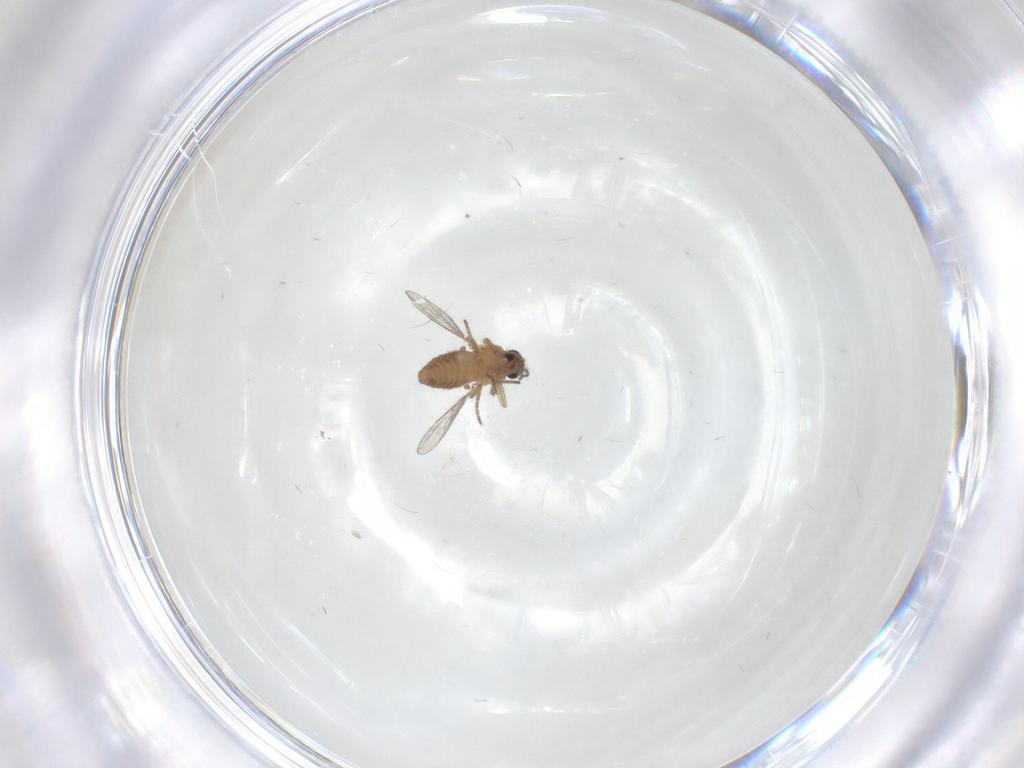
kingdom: Animalia
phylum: Arthropoda
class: Insecta
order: Diptera
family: Ceratopogonidae
